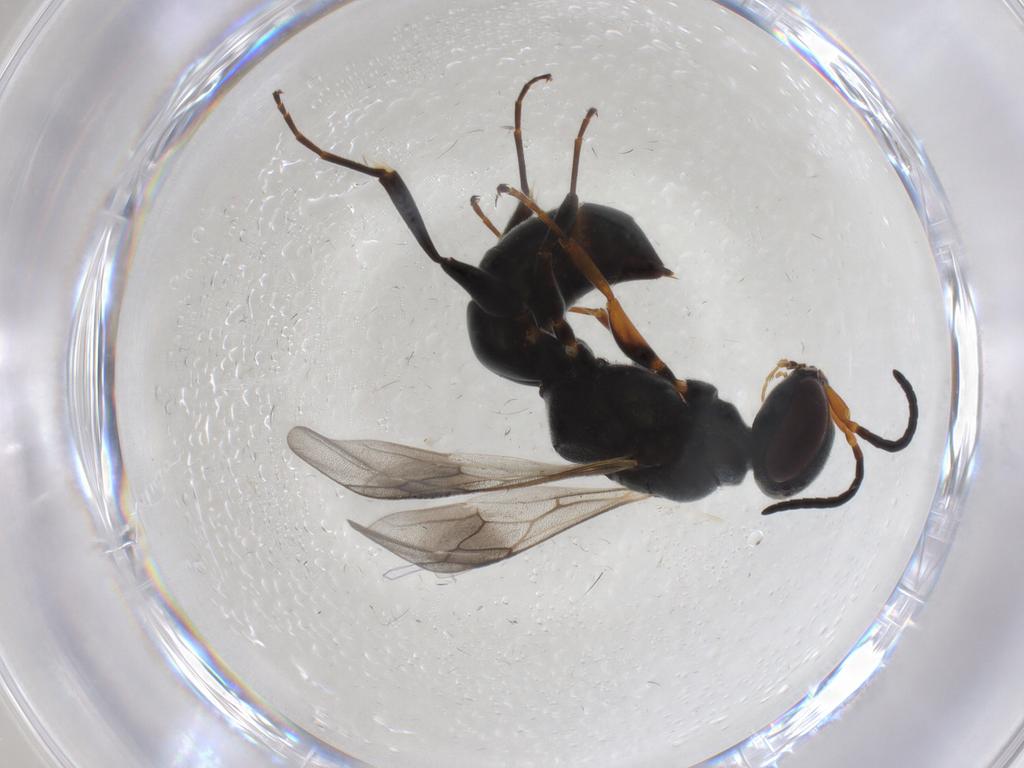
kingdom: Animalia
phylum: Arthropoda
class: Insecta
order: Hymenoptera
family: Crabronidae
